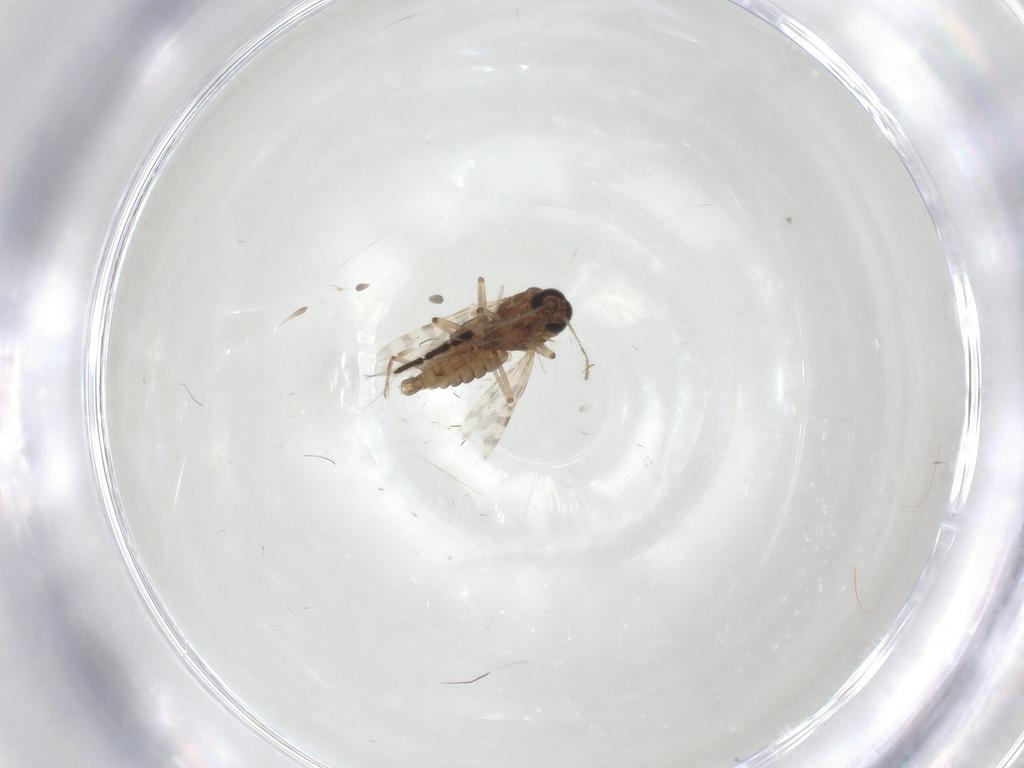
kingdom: Animalia
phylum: Arthropoda
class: Insecta
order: Diptera
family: Chironomidae
